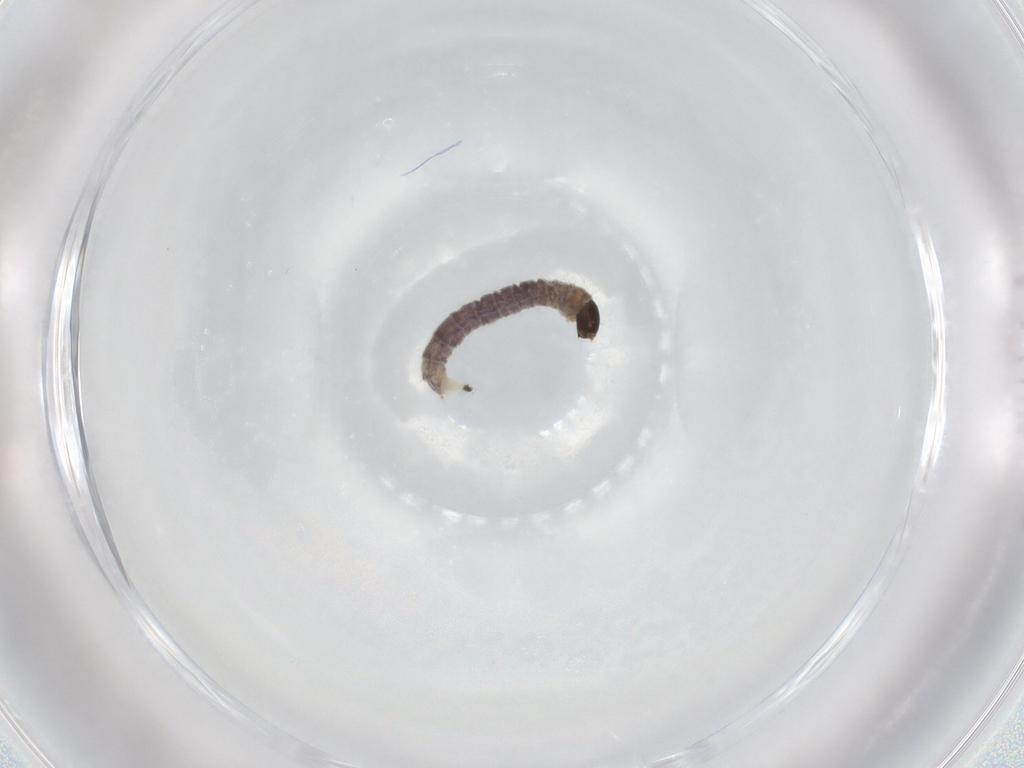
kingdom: Animalia
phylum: Arthropoda
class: Insecta
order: Diptera
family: Chironomidae
